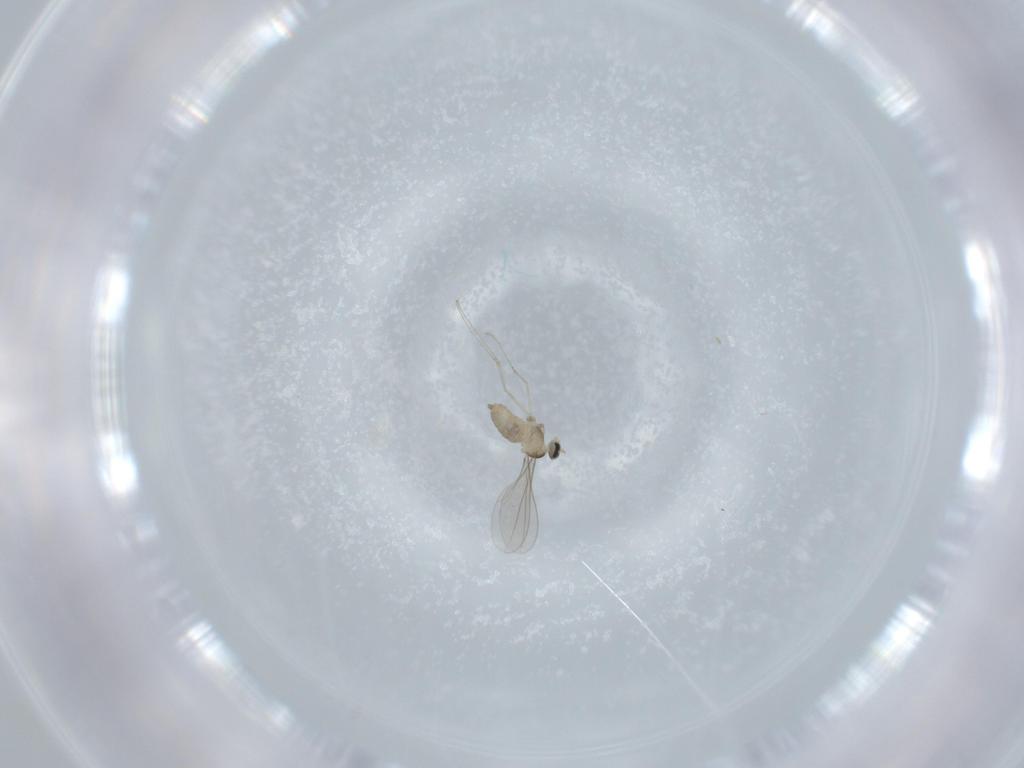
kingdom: Animalia
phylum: Arthropoda
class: Insecta
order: Diptera
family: Cecidomyiidae
